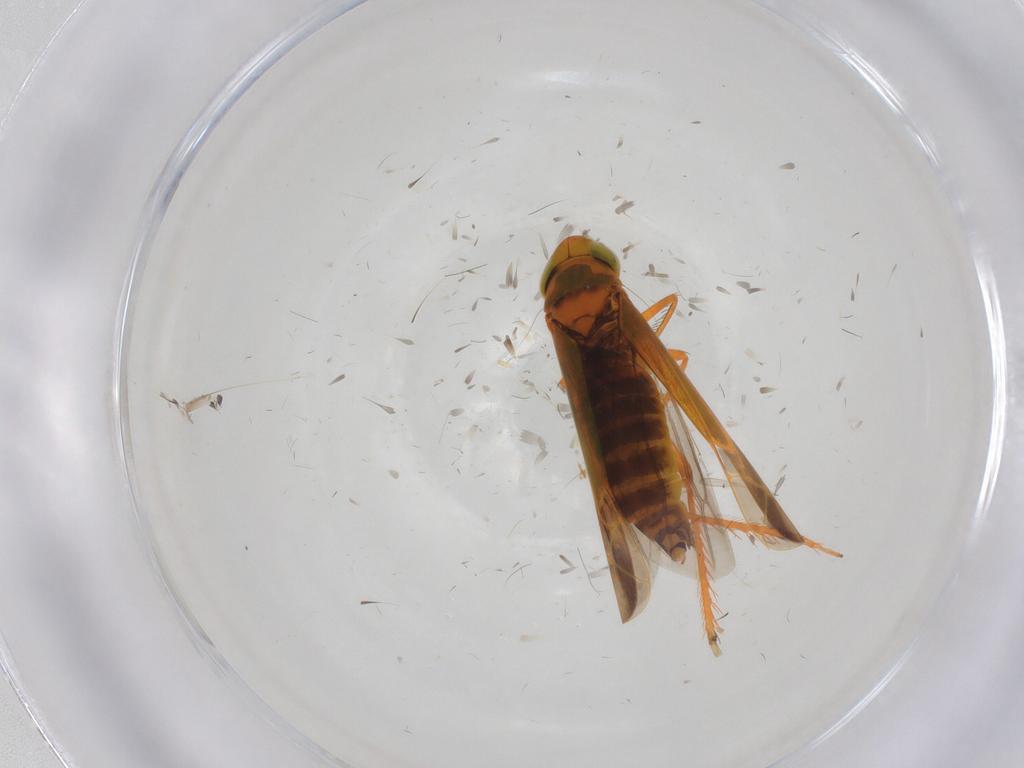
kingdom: Animalia
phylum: Arthropoda
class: Insecta
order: Hemiptera
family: Cicadellidae
